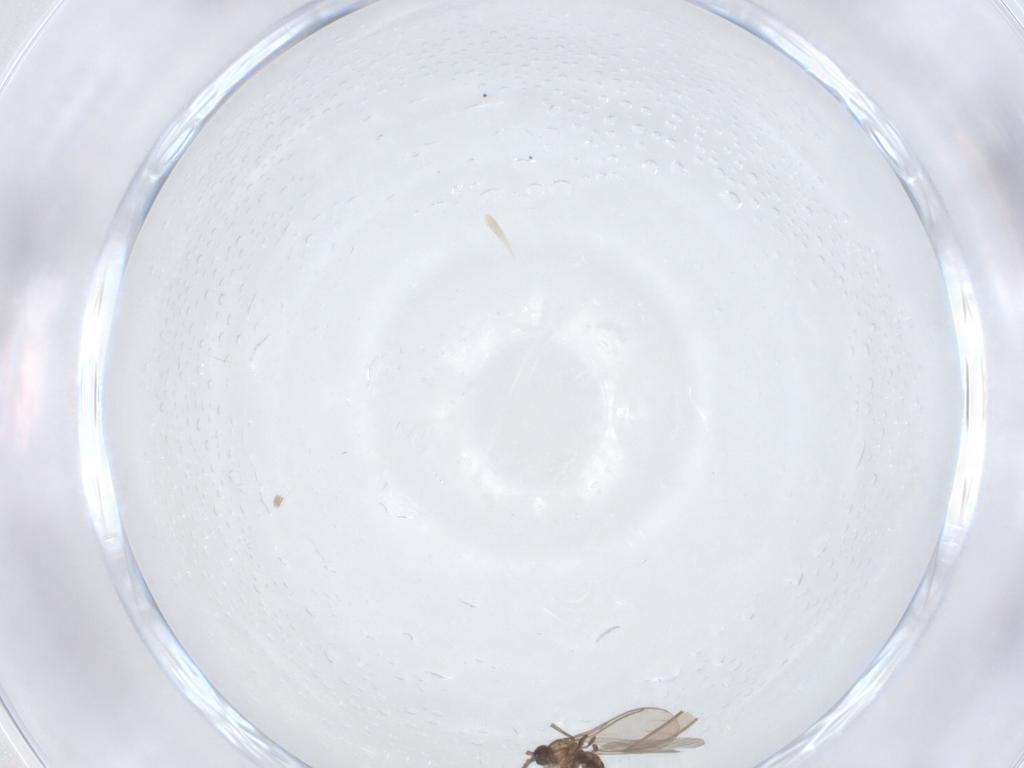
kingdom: Animalia
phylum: Arthropoda
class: Insecta
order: Diptera
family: Sciaridae
